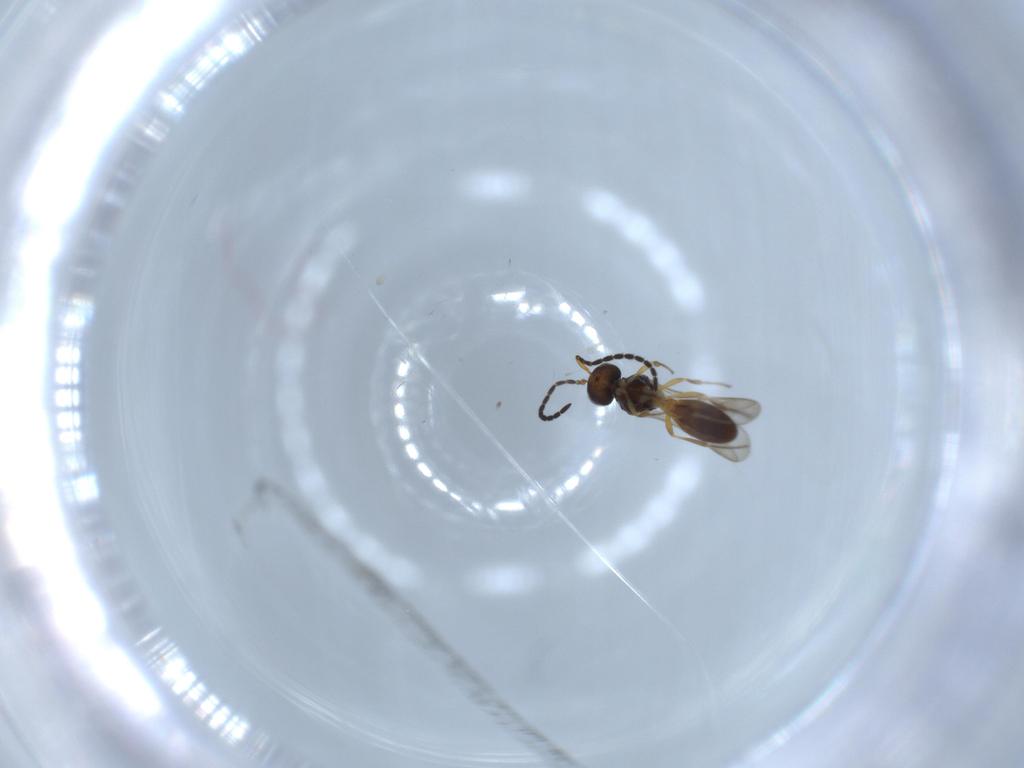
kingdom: Animalia
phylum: Arthropoda
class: Insecta
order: Hymenoptera
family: Scelionidae
